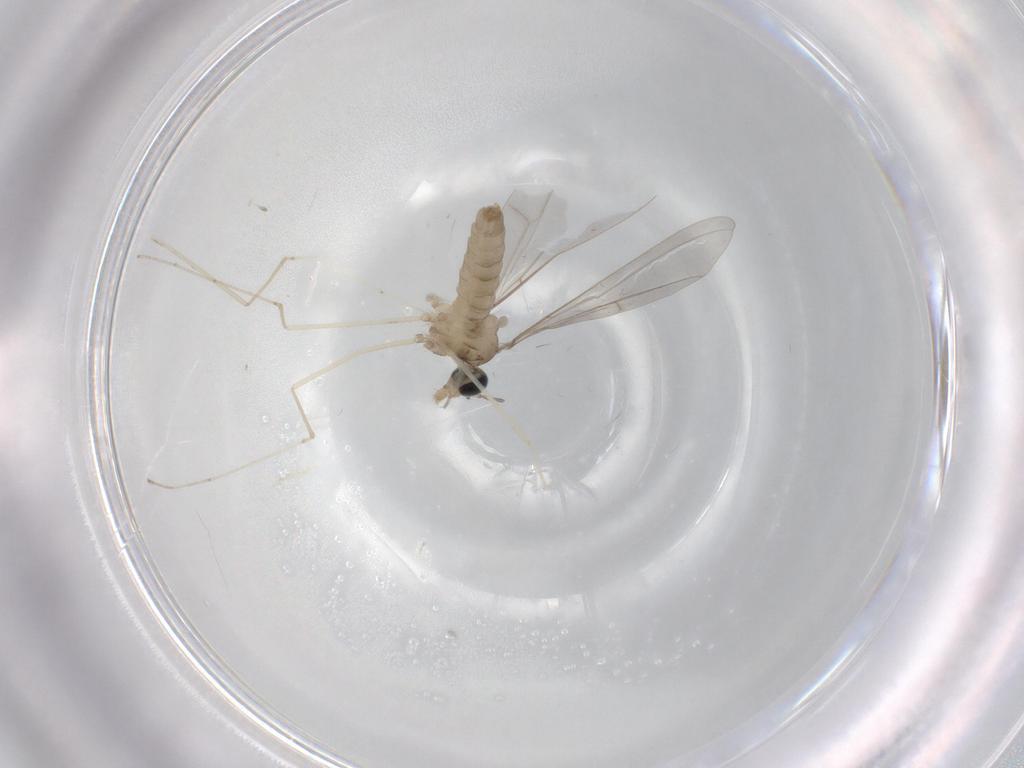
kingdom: Animalia
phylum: Arthropoda
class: Insecta
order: Diptera
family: Cecidomyiidae
